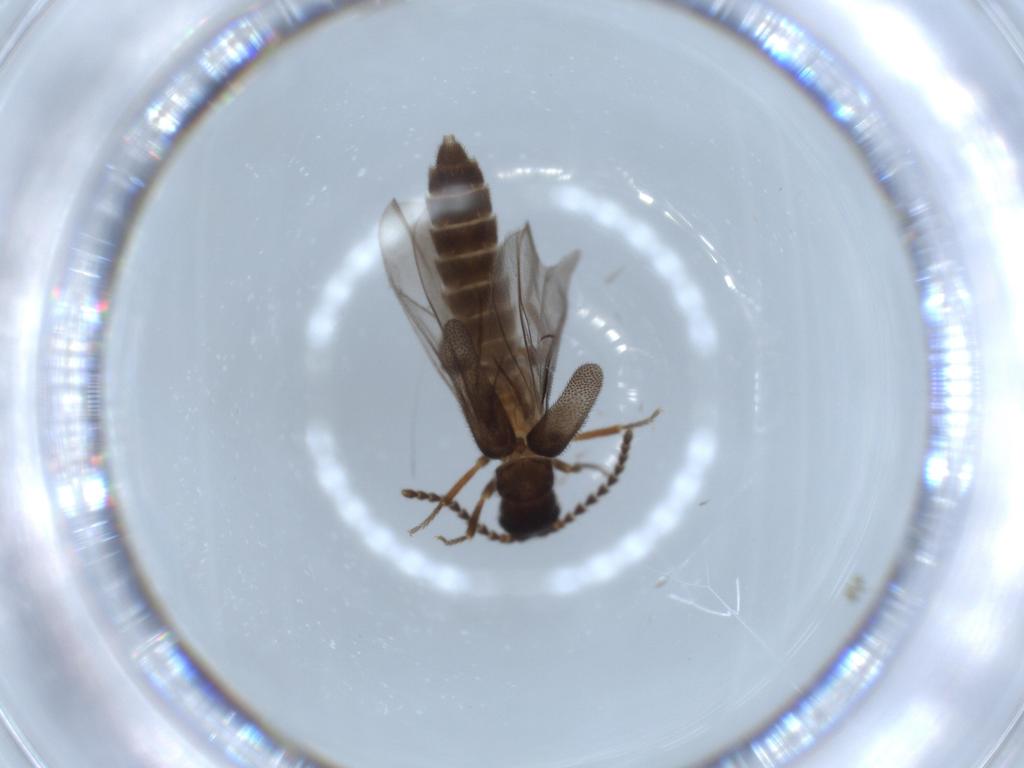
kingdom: Animalia
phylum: Arthropoda
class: Insecta
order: Coleoptera
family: Omethidae
